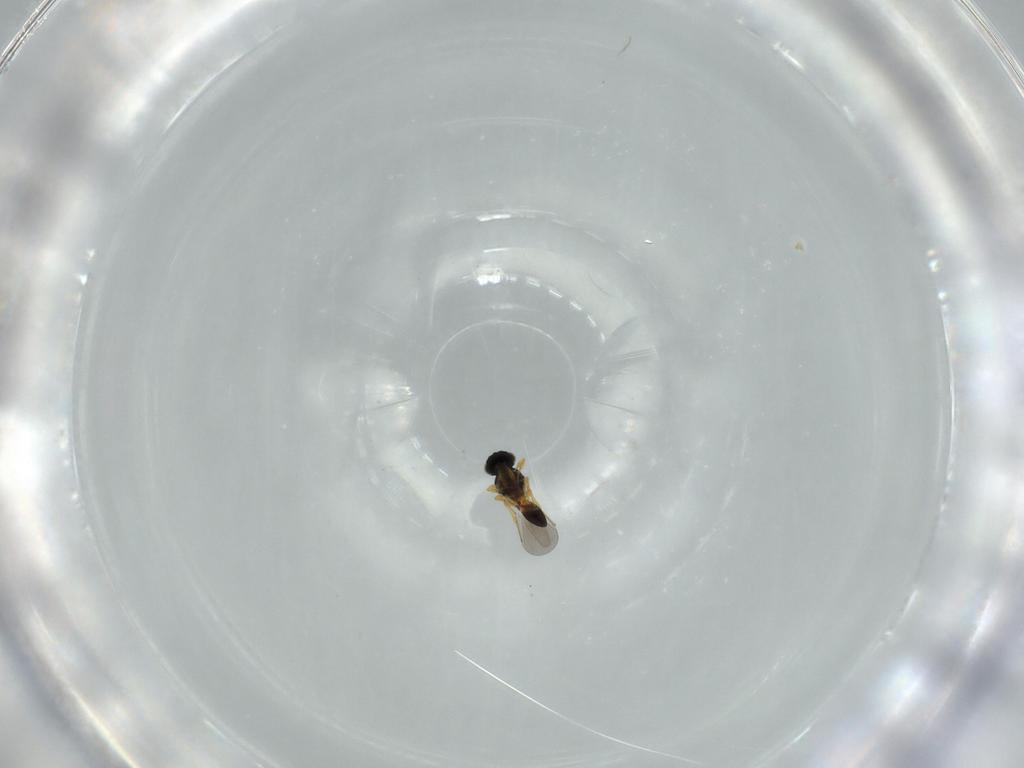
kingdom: Animalia
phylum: Arthropoda
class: Insecta
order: Hymenoptera
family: Platygastridae
